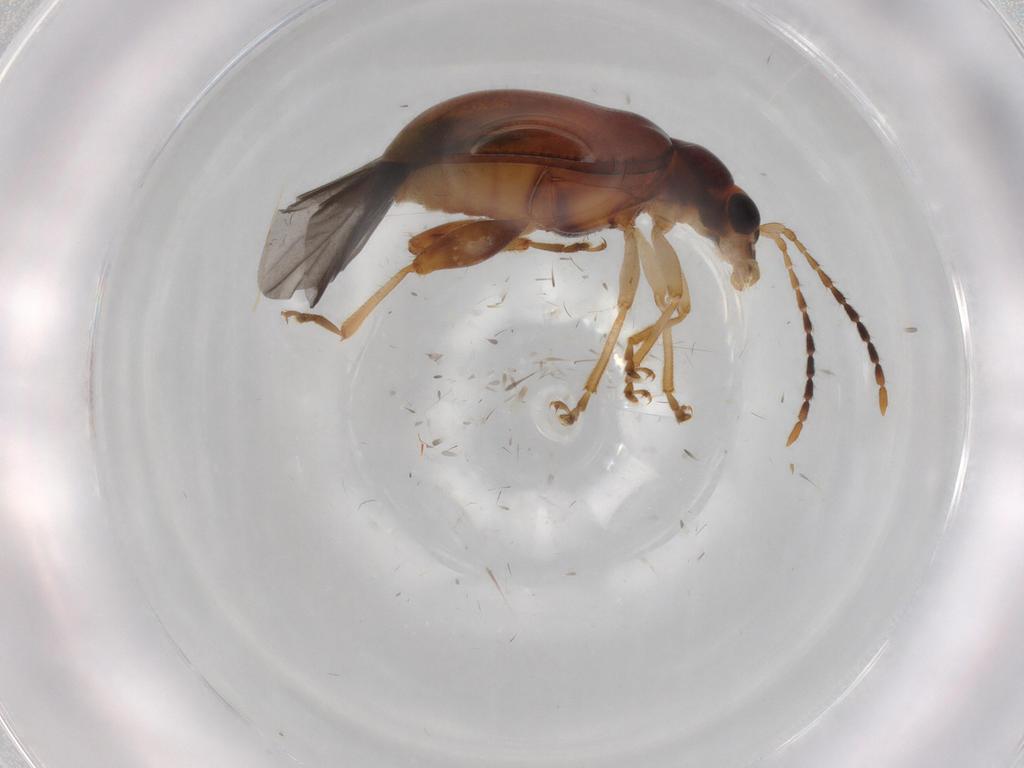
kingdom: Animalia
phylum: Arthropoda
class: Insecta
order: Coleoptera
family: Chrysomelidae
